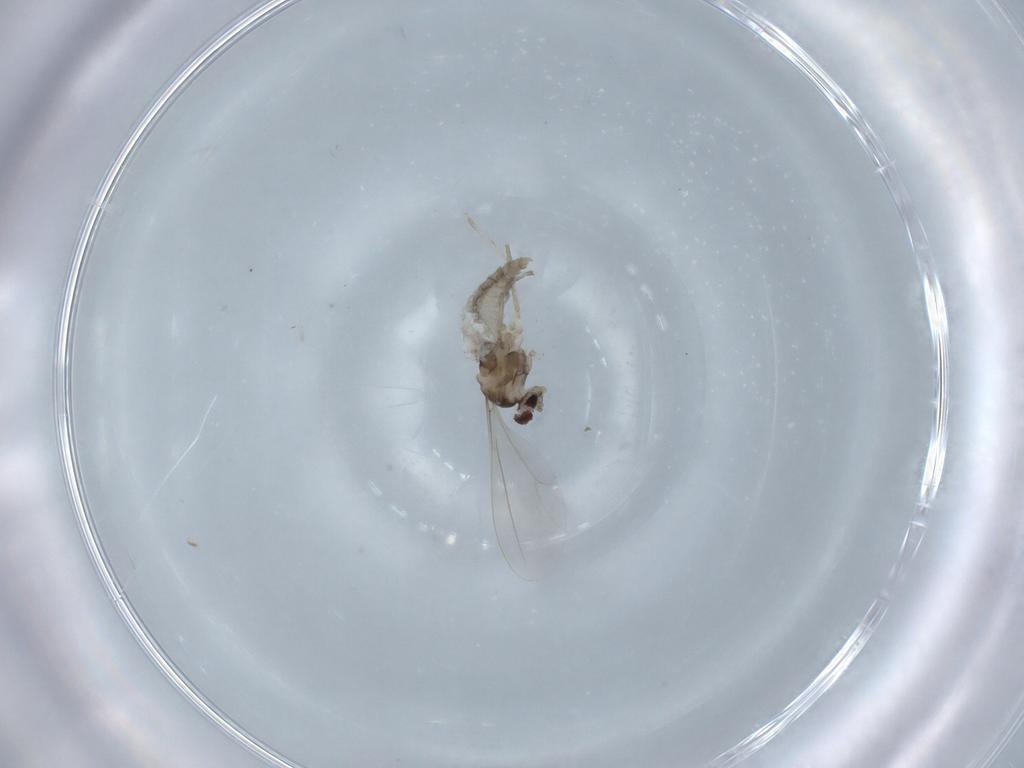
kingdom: Animalia
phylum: Arthropoda
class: Insecta
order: Diptera
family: Cecidomyiidae
